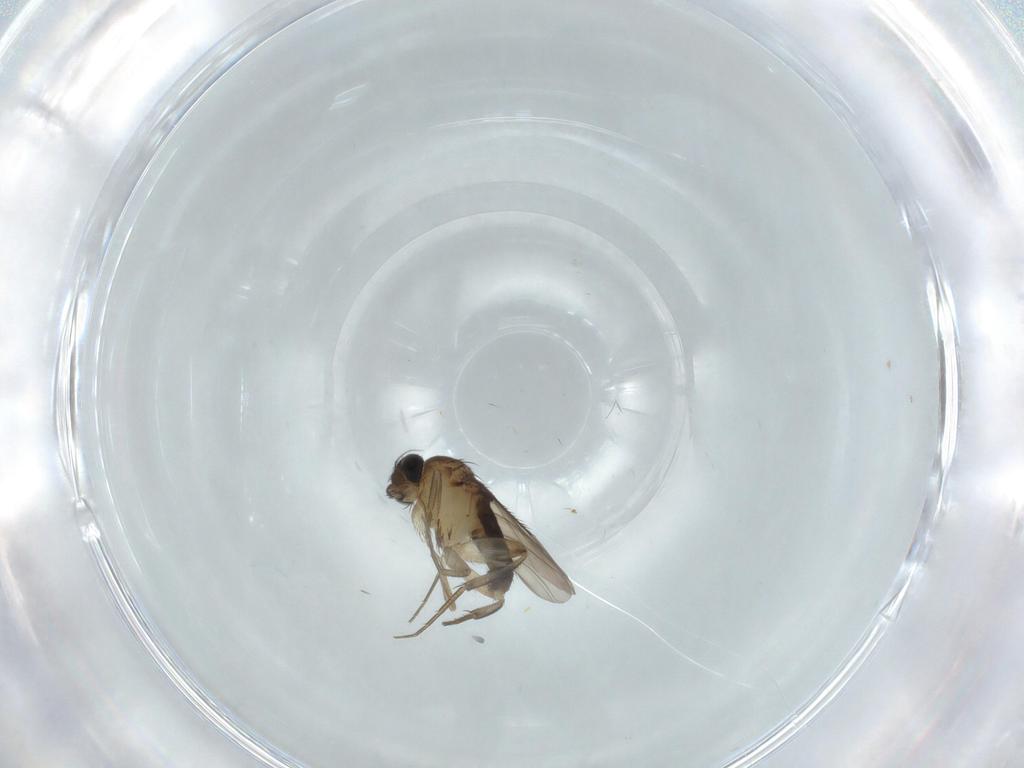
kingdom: Animalia
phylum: Arthropoda
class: Insecta
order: Diptera
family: Phoridae
